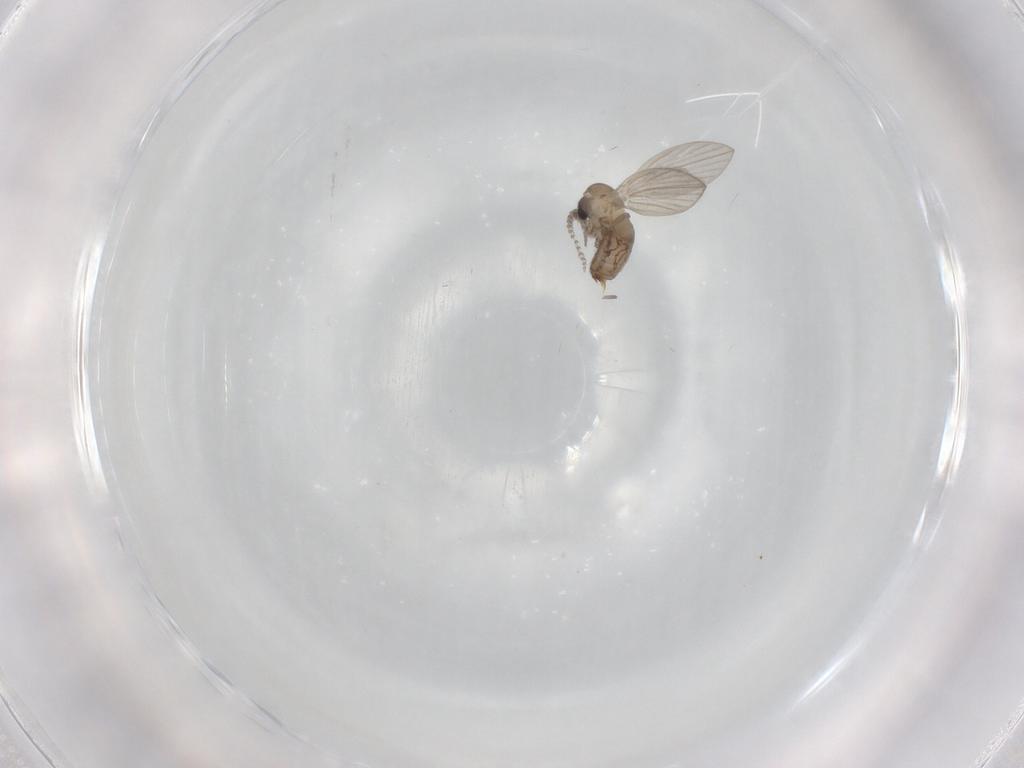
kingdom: Animalia
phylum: Arthropoda
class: Insecta
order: Diptera
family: Psychodidae
